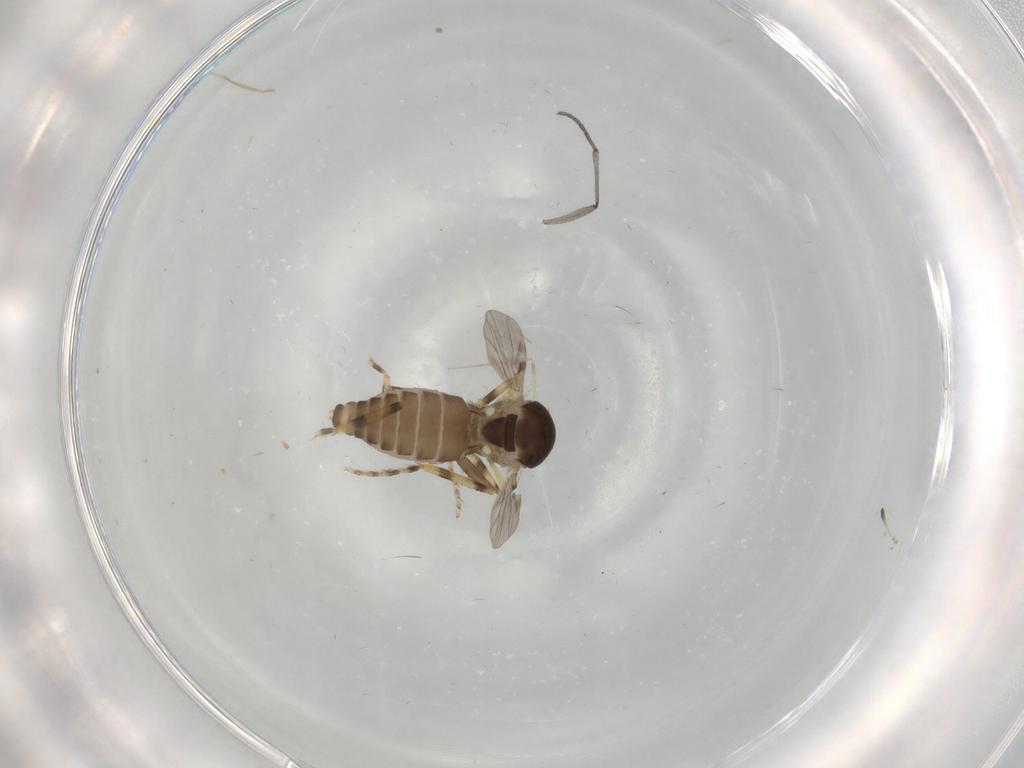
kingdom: Animalia
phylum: Arthropoda
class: Insecta
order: Diptera
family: Ceratopogonidae
